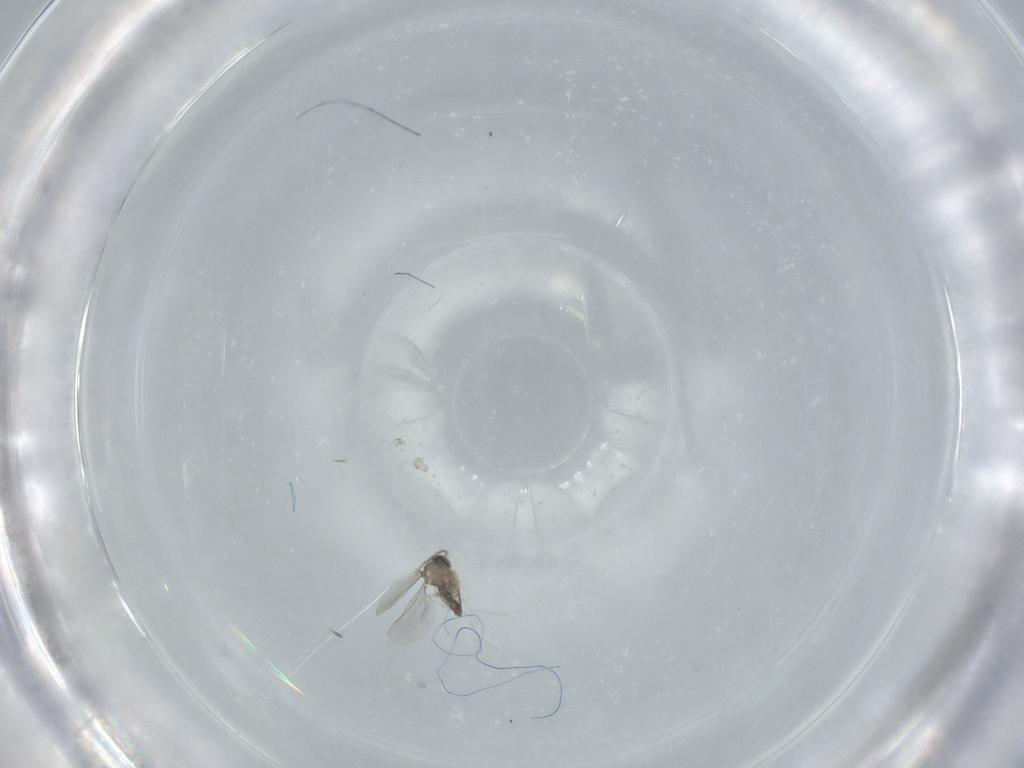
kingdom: Animalia
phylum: Arthropoda
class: Insecta
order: Diptera
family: Cecidomyiidae
